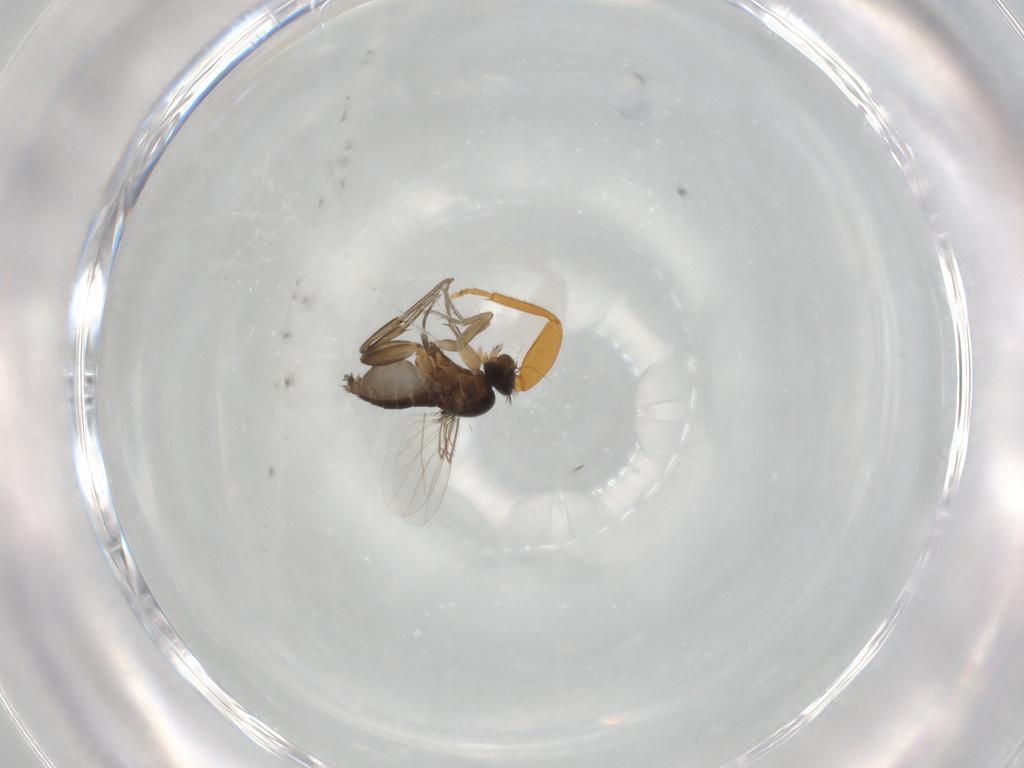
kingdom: Animalia
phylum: Arthropoda
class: Insecta
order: Diptera
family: Phoridae
